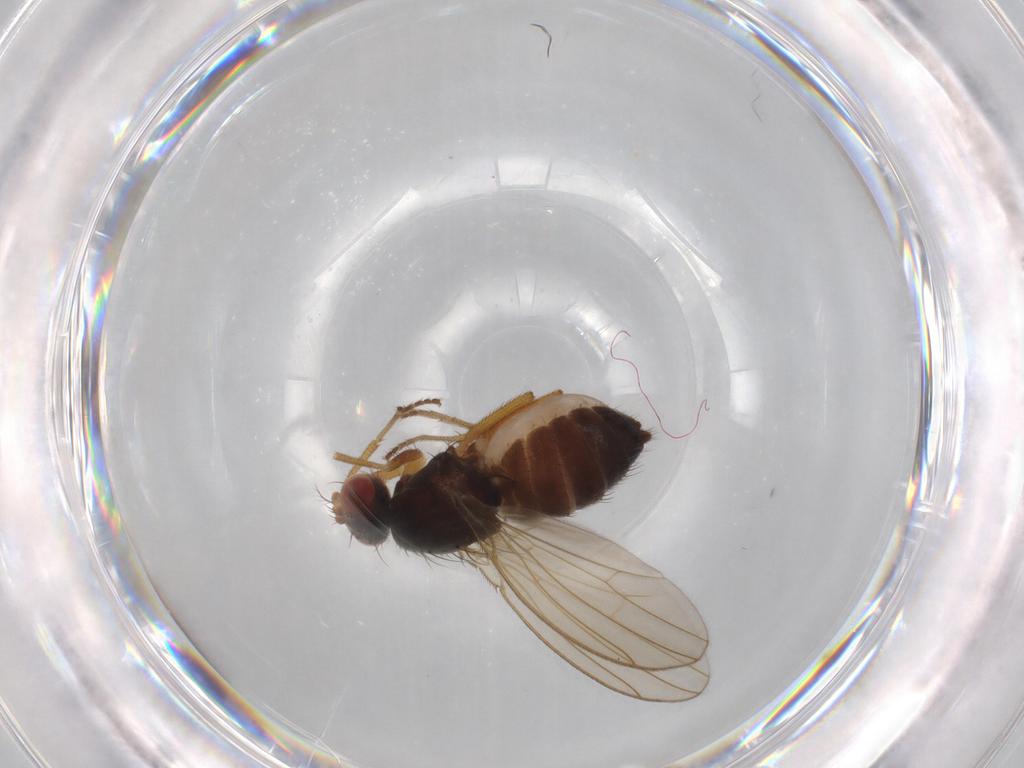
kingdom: Animalia
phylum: Arthropoda
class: Insecta
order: Diptera
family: Drosophilidae
